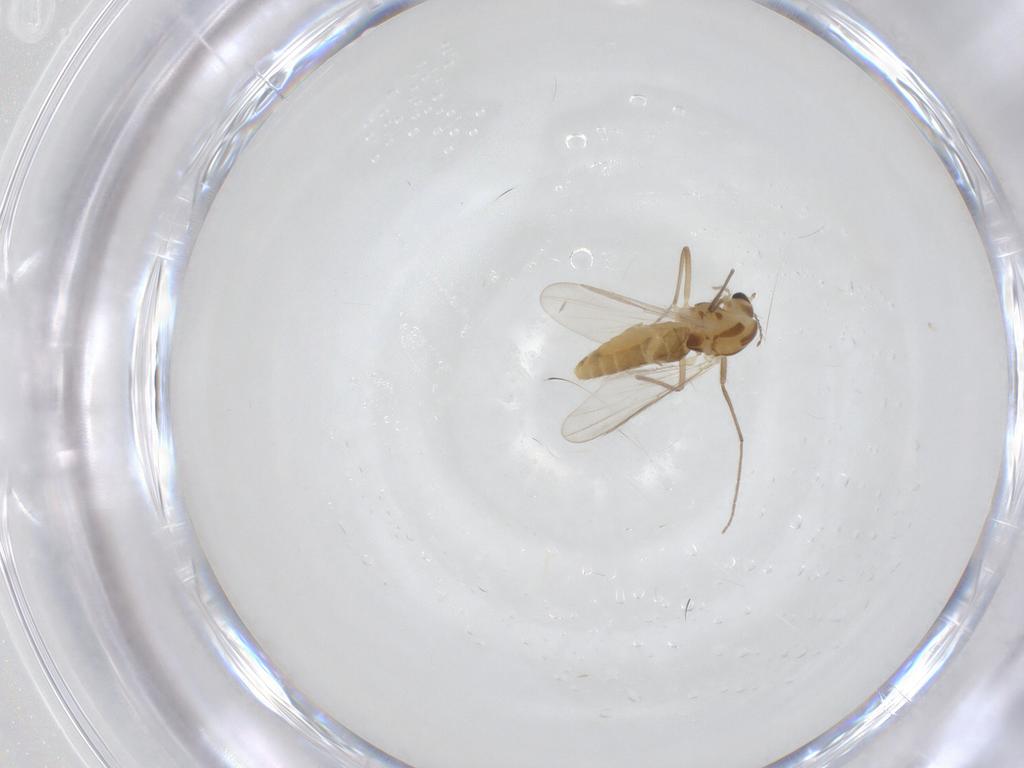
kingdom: Animalia
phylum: Arthropoda
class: Insecta
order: Diptera
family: Chironomidae
